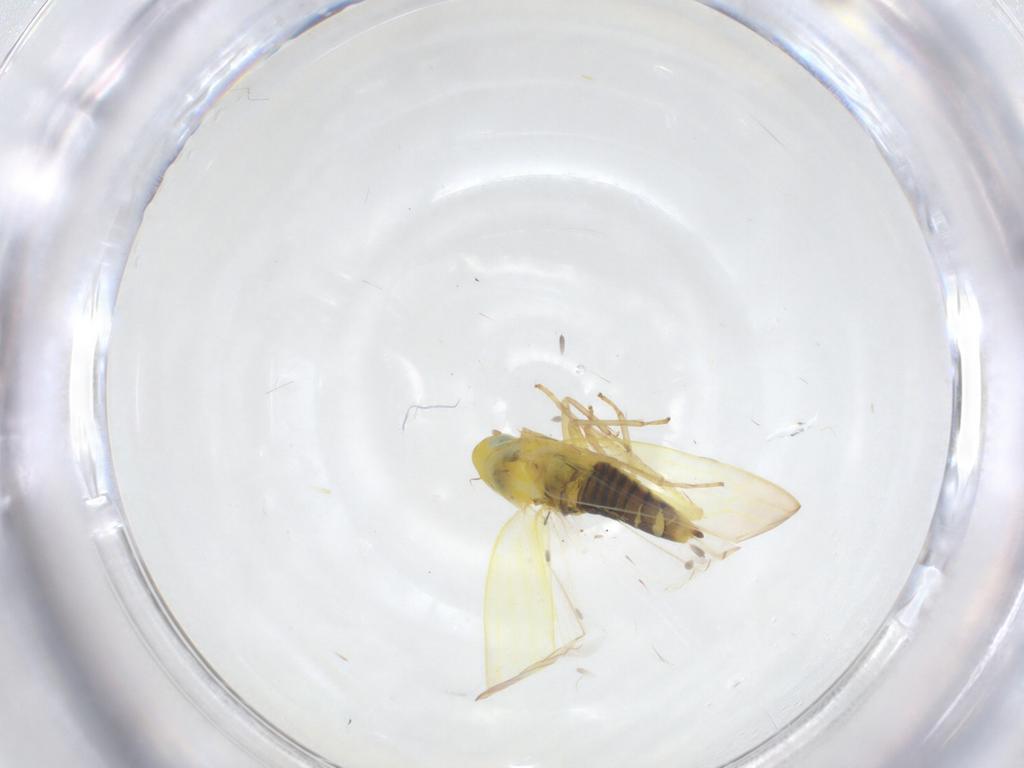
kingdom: Animalia
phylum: Arthropoda
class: Insecta
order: Hemiptera
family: Cicadellidae
